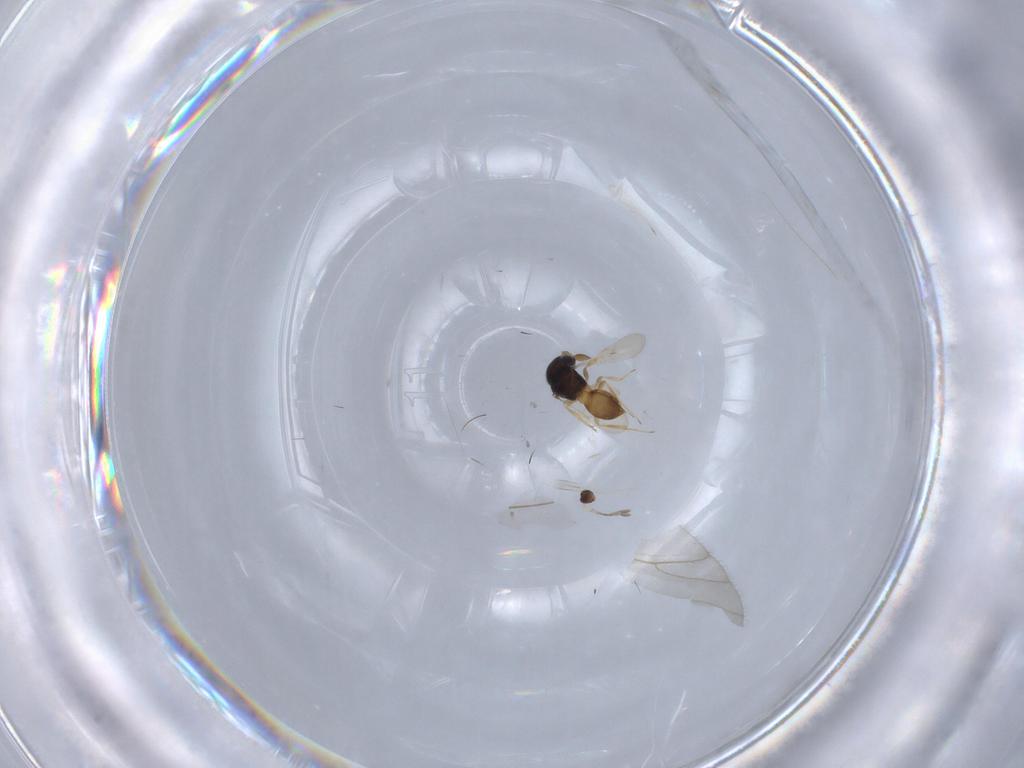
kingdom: Animalia
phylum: Arthropoda
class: Insecta
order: Hymenoptera
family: Scelionidae
